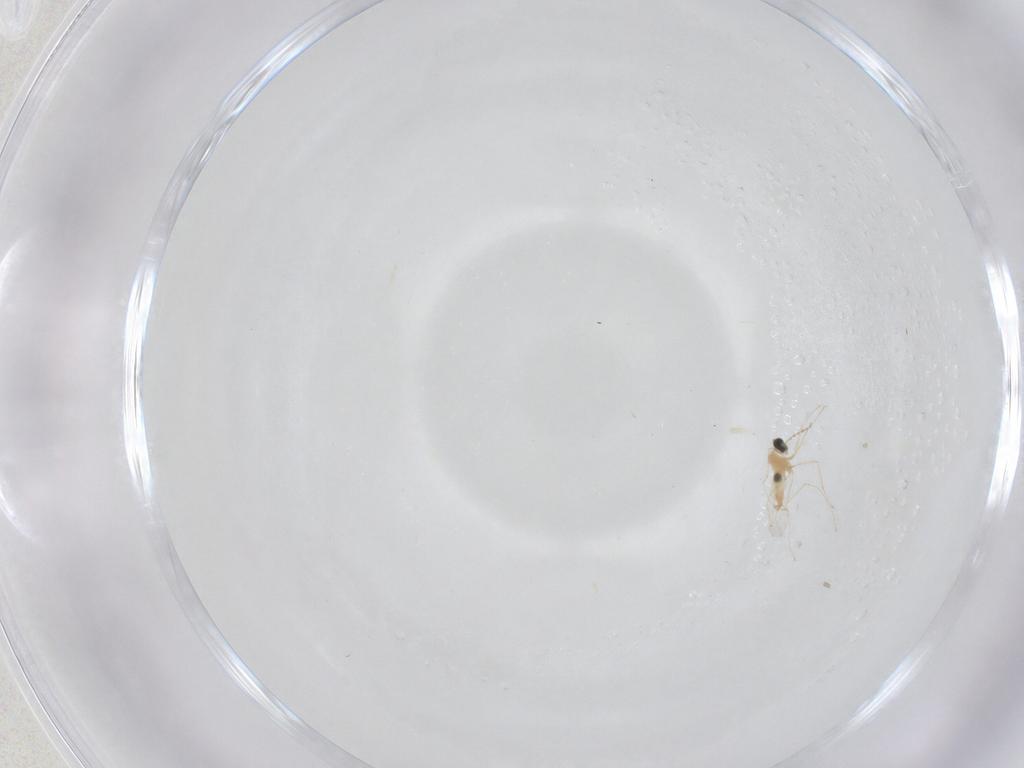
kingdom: Animalia
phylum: Arthropoda
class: Insecta
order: Diptera
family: Cecidomyiidae
